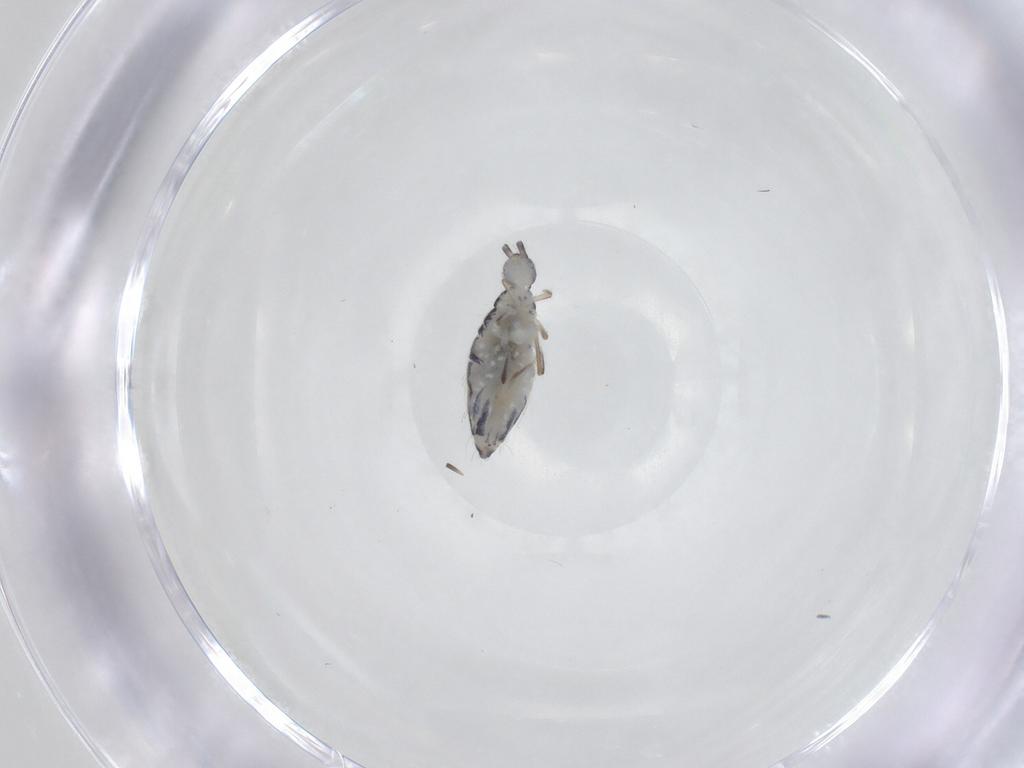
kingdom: Animalia
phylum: Arthropoda
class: Collembola
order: Entomobryomorpha
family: Entomobryidae
